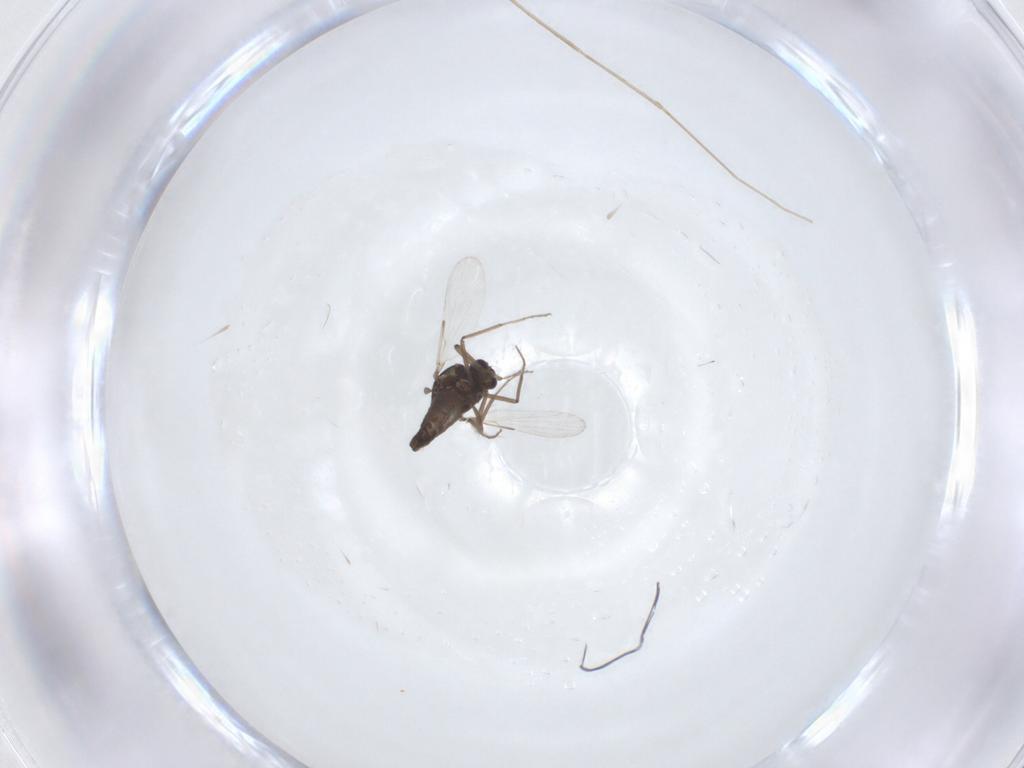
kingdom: Animalia
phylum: Arthropoda
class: Insecta
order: Diptera
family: Ceratopogonidae
